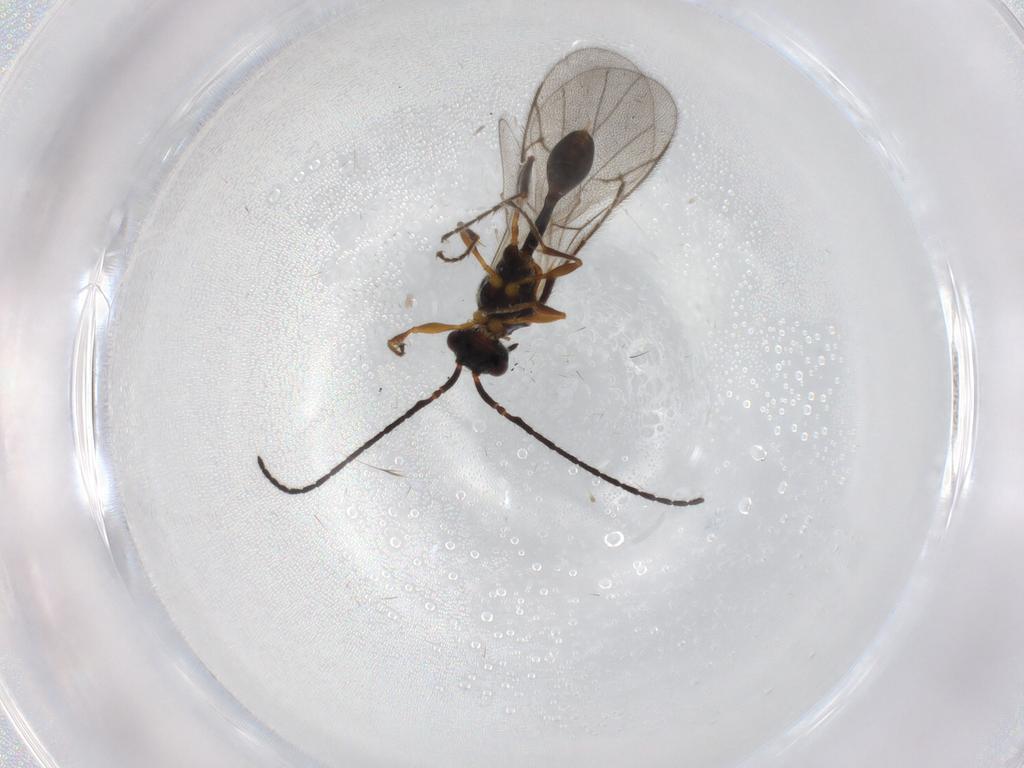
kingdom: Animalia
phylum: Arthropoda
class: Insecta
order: Hymenoptera
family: Diapriidae
